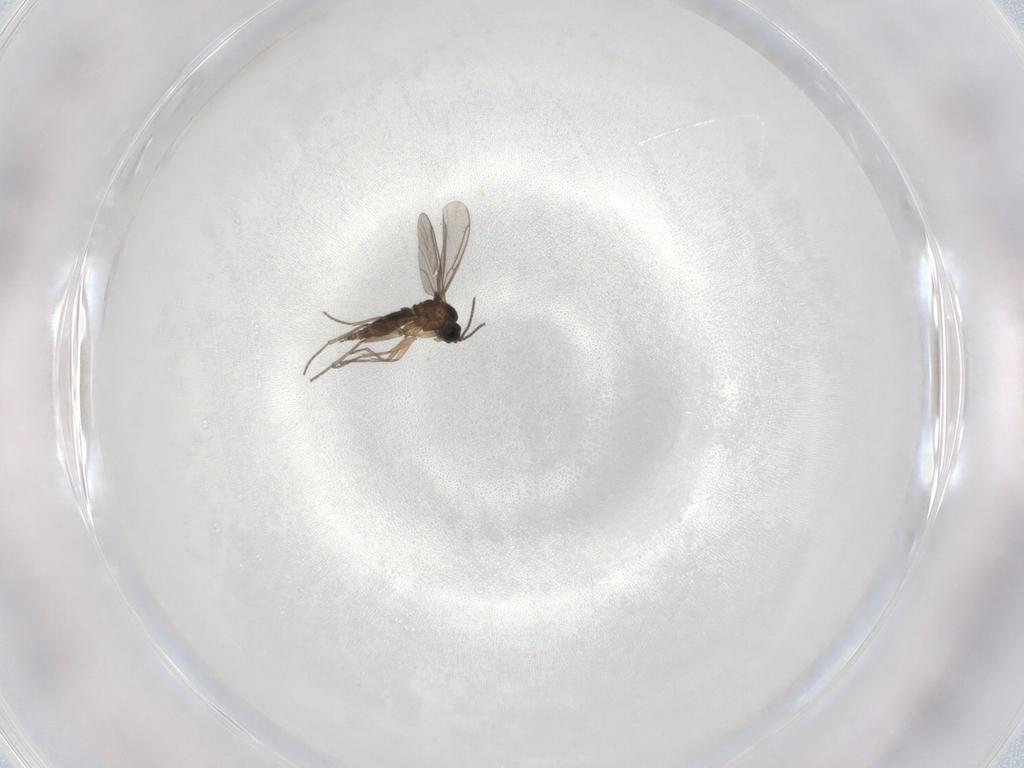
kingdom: Animalia
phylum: Arthropoda
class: Insecta
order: Diptera
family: Sciaridae
